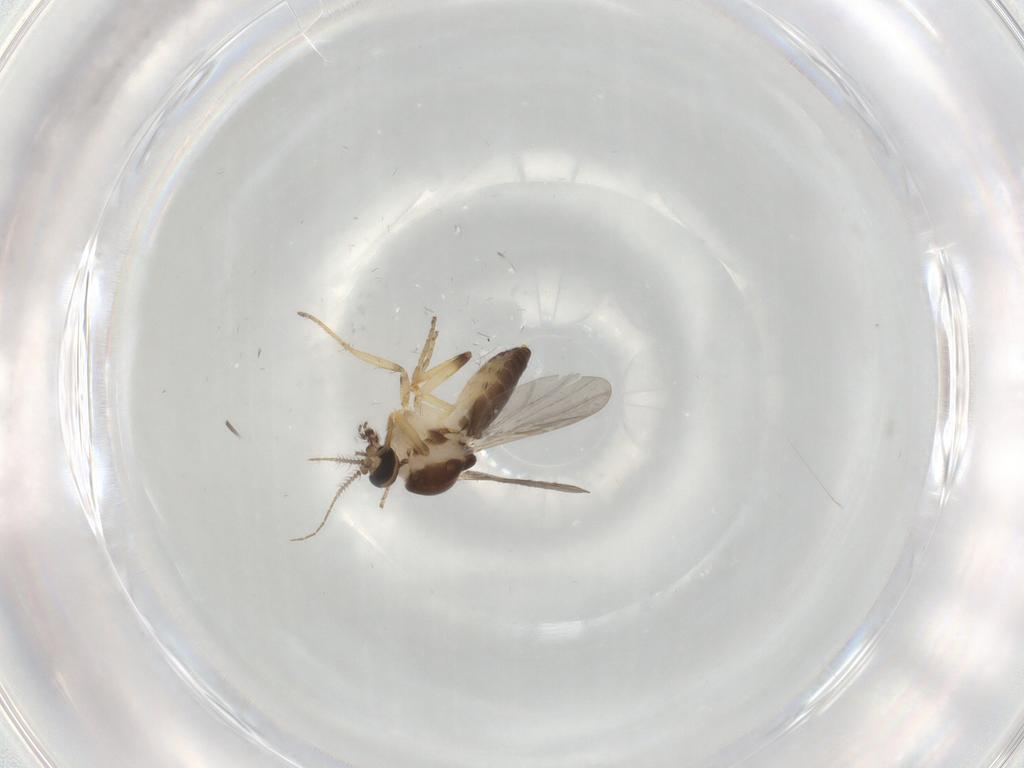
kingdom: Animalia
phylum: Arthropoda
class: Insecta
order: Diptera
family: Ceratopogonidae
